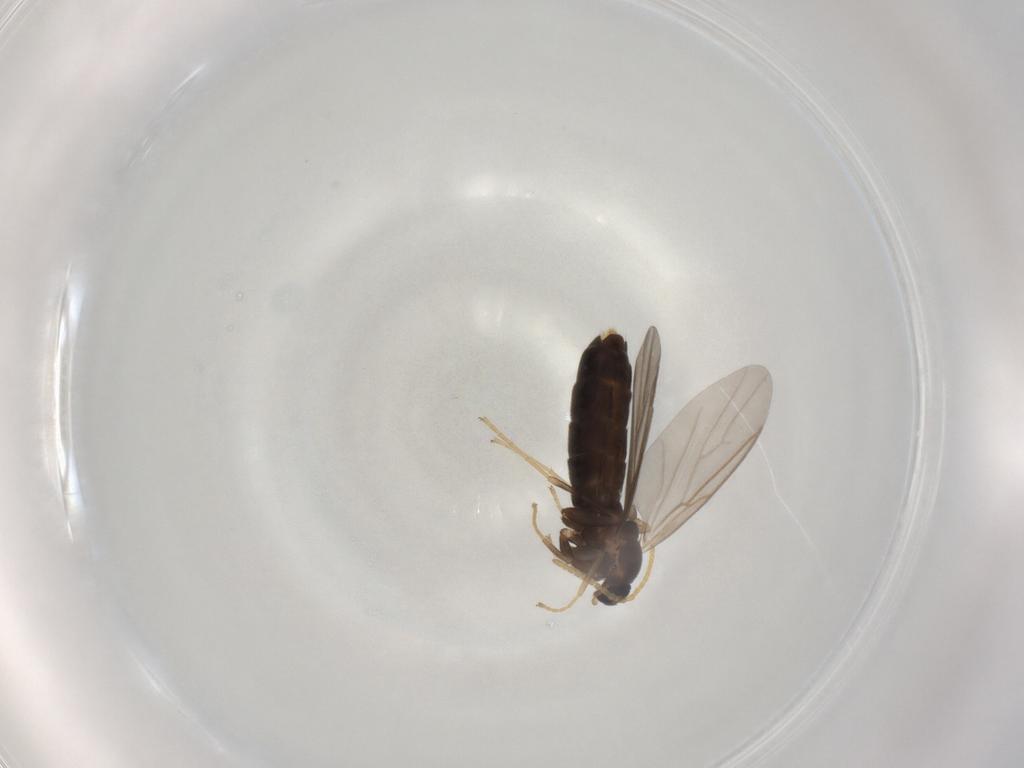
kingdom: Animalia
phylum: Arthropoda
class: Insecta
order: Diptera
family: Scatopsidae
